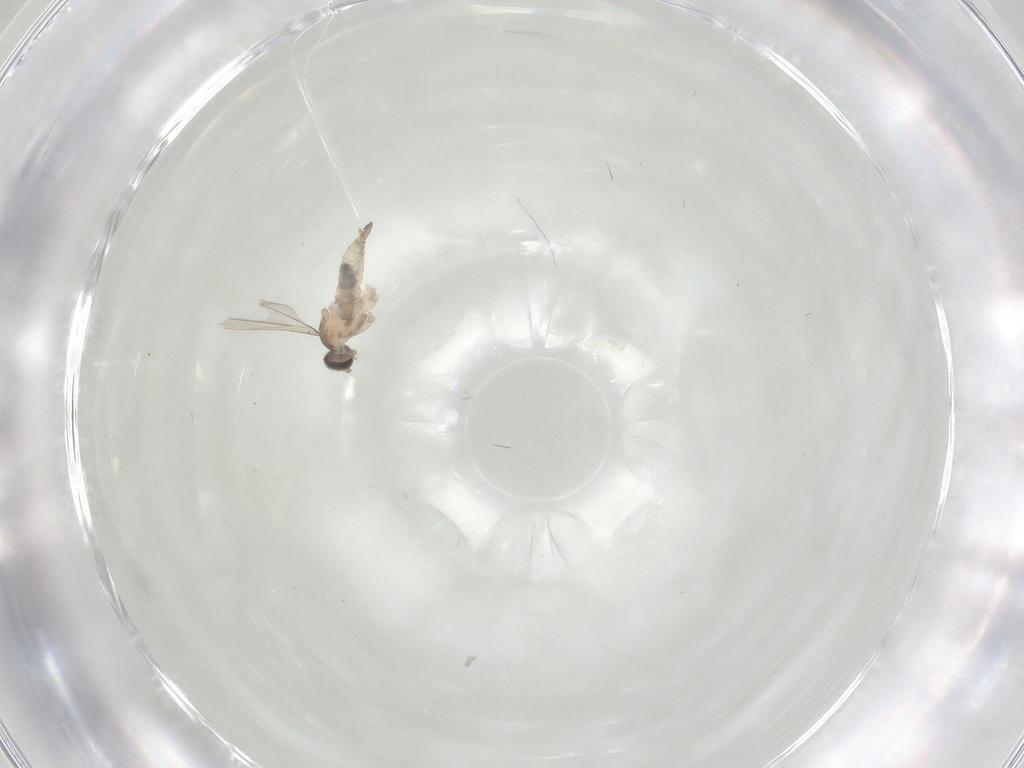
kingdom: Animalia
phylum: Arthropoda
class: Insecta
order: Diptera
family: Cecidomyiidae
